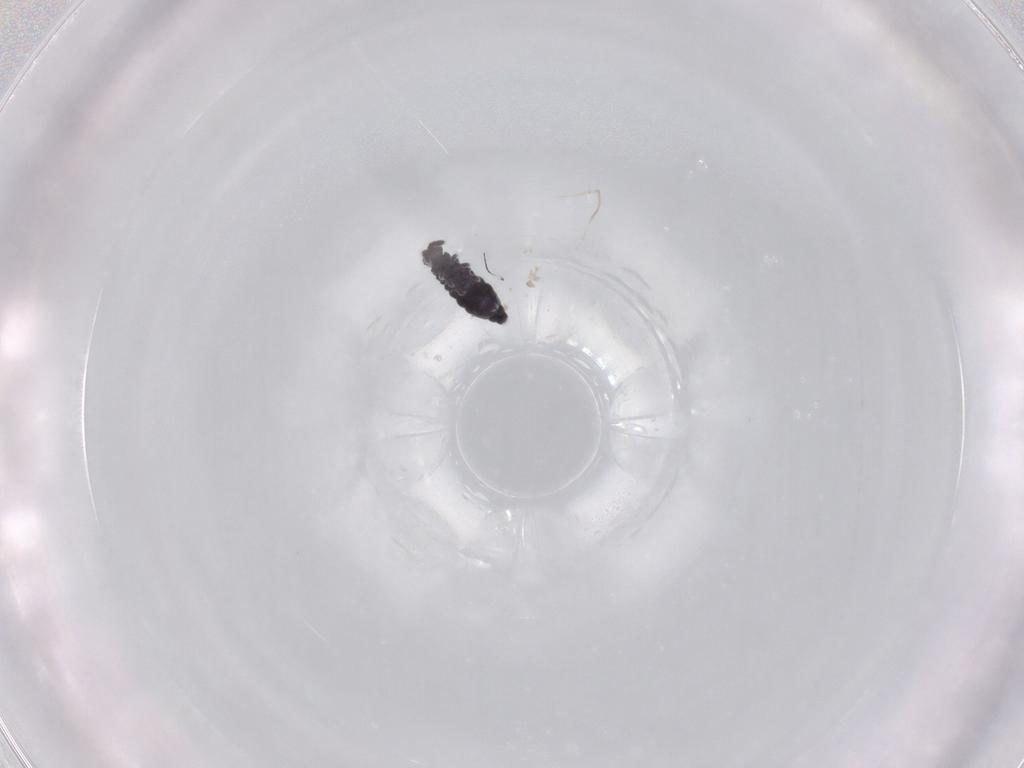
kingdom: Animalia
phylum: Arthropoda
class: Collembola
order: Poduromorpha
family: Hypogastruridae
